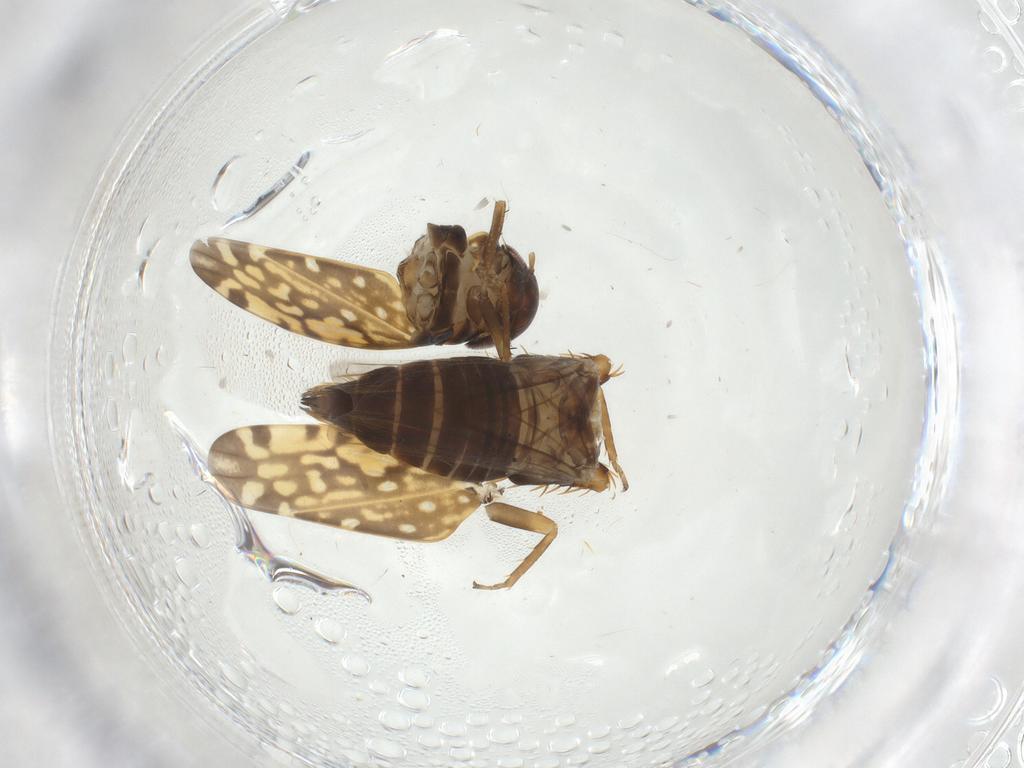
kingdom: Animalia
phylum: Arthropoda
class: Insecta
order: Hemiptera
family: Cicadellidae
